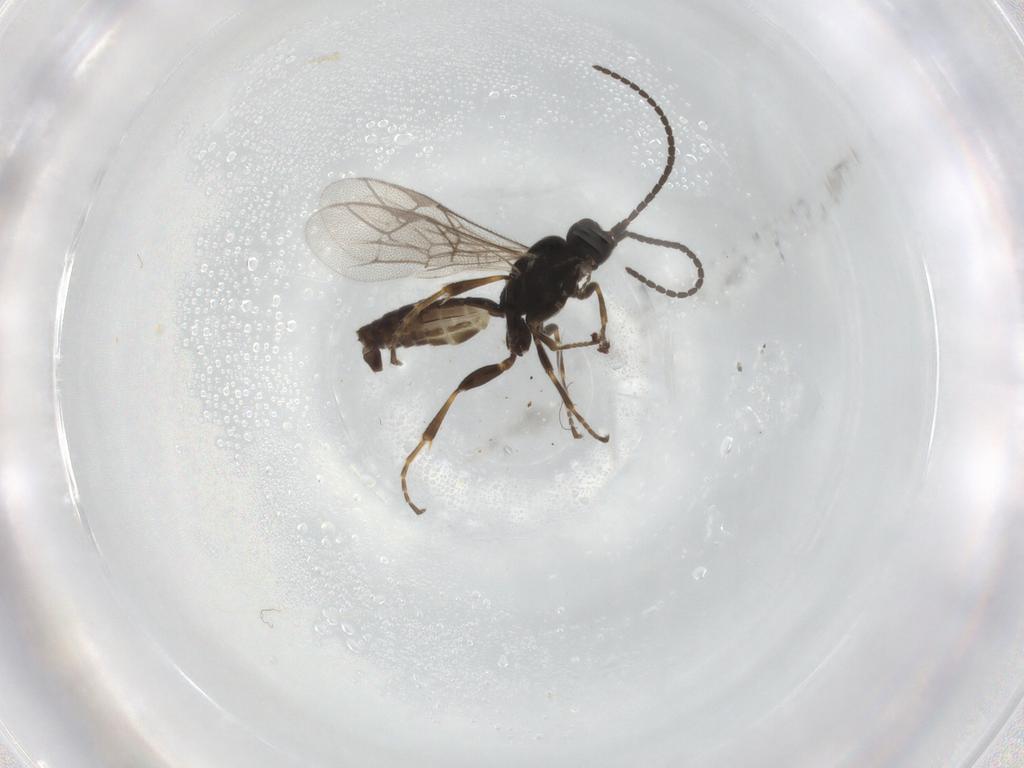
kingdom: Animalia
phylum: Arthropoda
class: Insecta
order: Hymenoptera
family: Ichneumonidae
